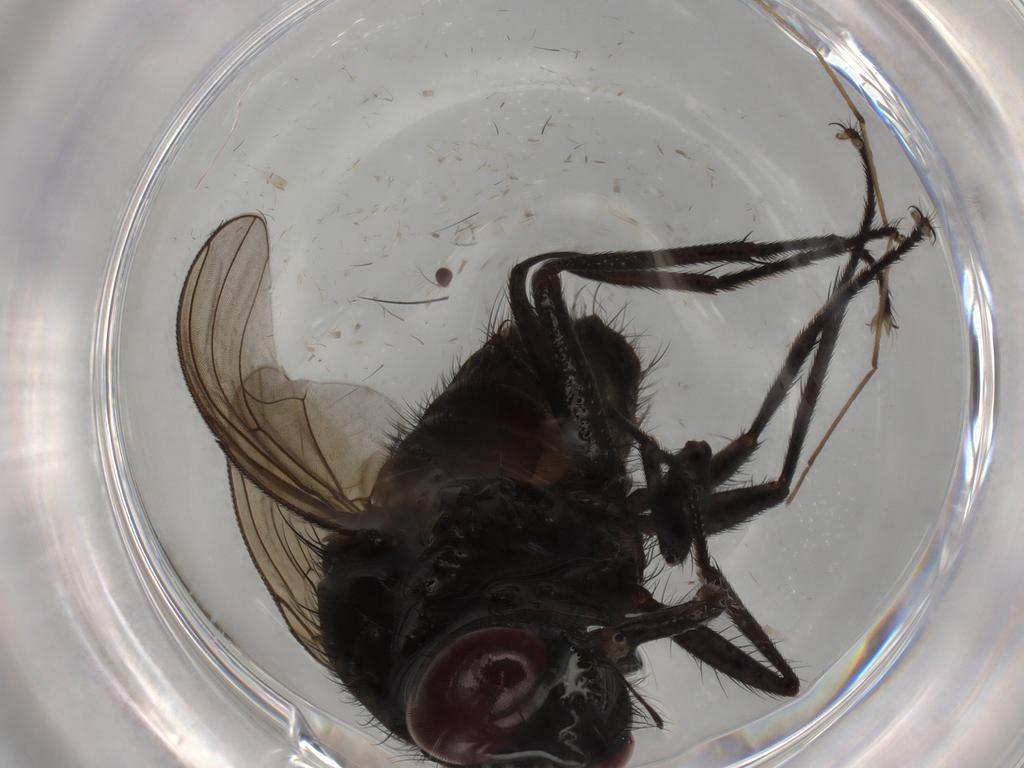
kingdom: Animalia
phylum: Arthropoda
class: Insecta
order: Diptera
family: Muscidae
